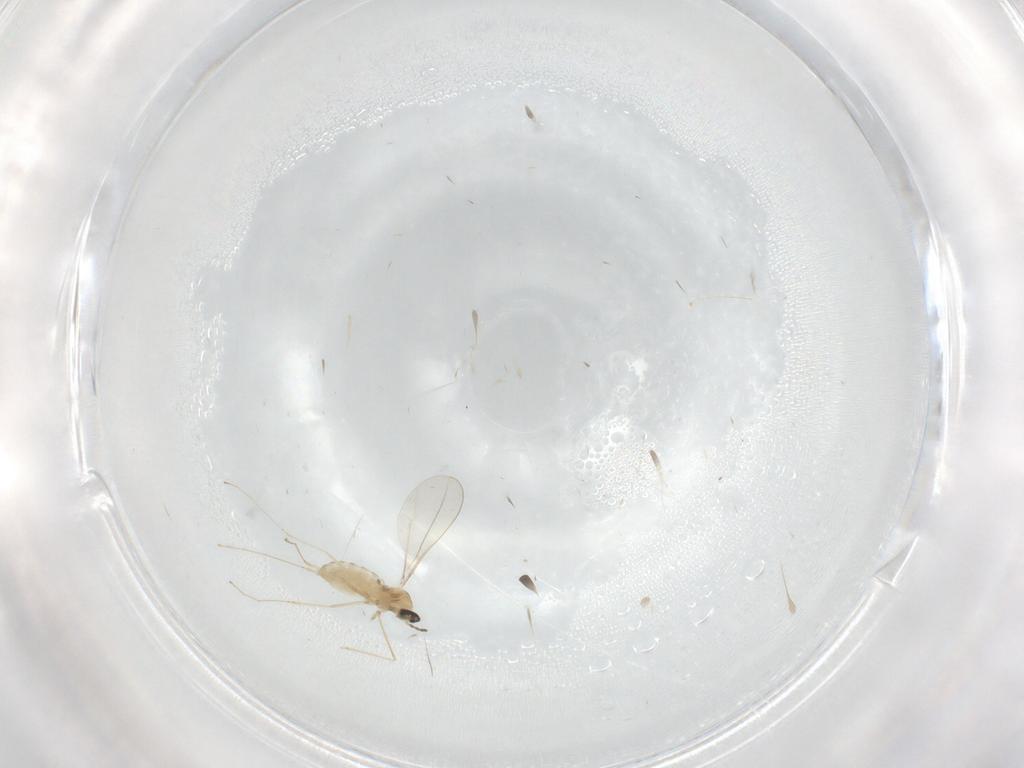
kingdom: Animalia
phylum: Arthropoda
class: Insecta
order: Diptera
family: Cecidomyiidae
